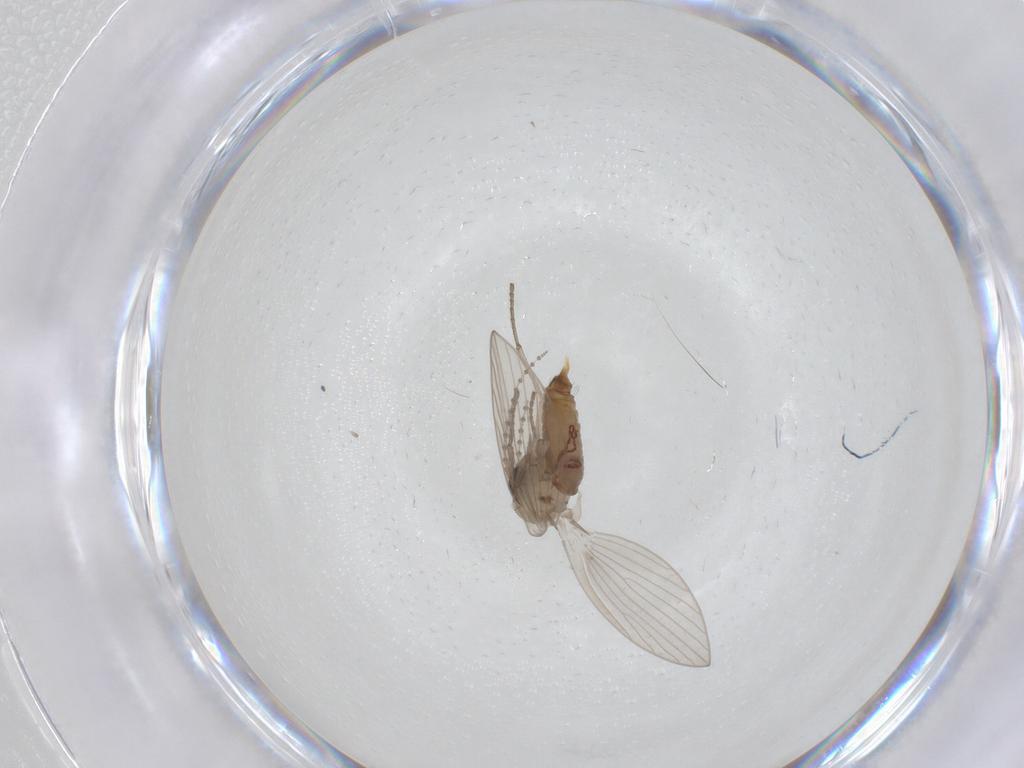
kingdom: Animalia
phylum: Arthropoda
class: Insecta
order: Diptera
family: Psychodidae
